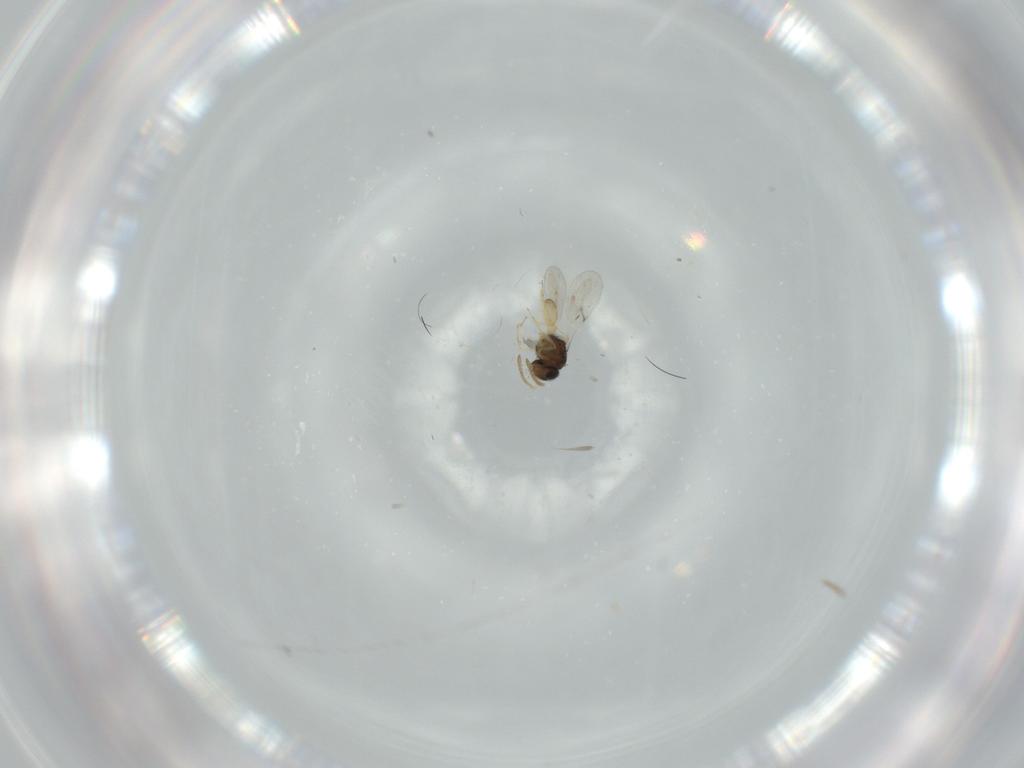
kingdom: Animalia
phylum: Arthropoda
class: Insecta
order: Hymenoptera
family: Scelionidae
